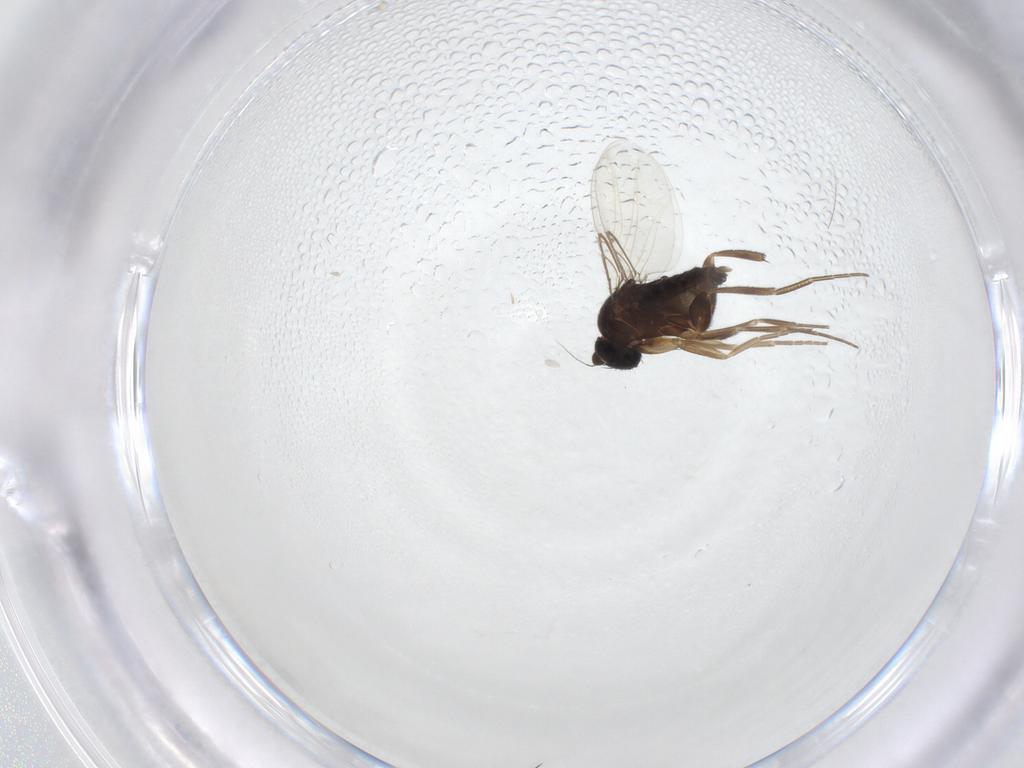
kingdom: Animalia
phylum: Arthropoda
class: Insecta
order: Diptera
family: Phoridae
